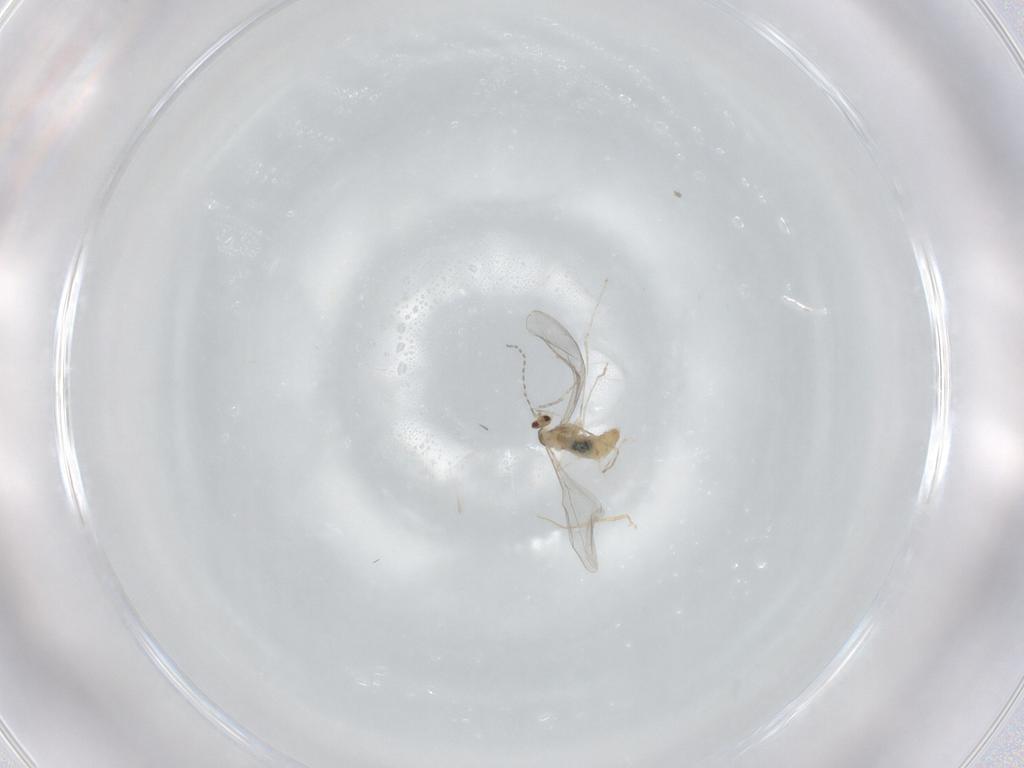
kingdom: Animalia
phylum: Arthropoda
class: Insecta
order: Diptera
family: Cecidomyiidae
